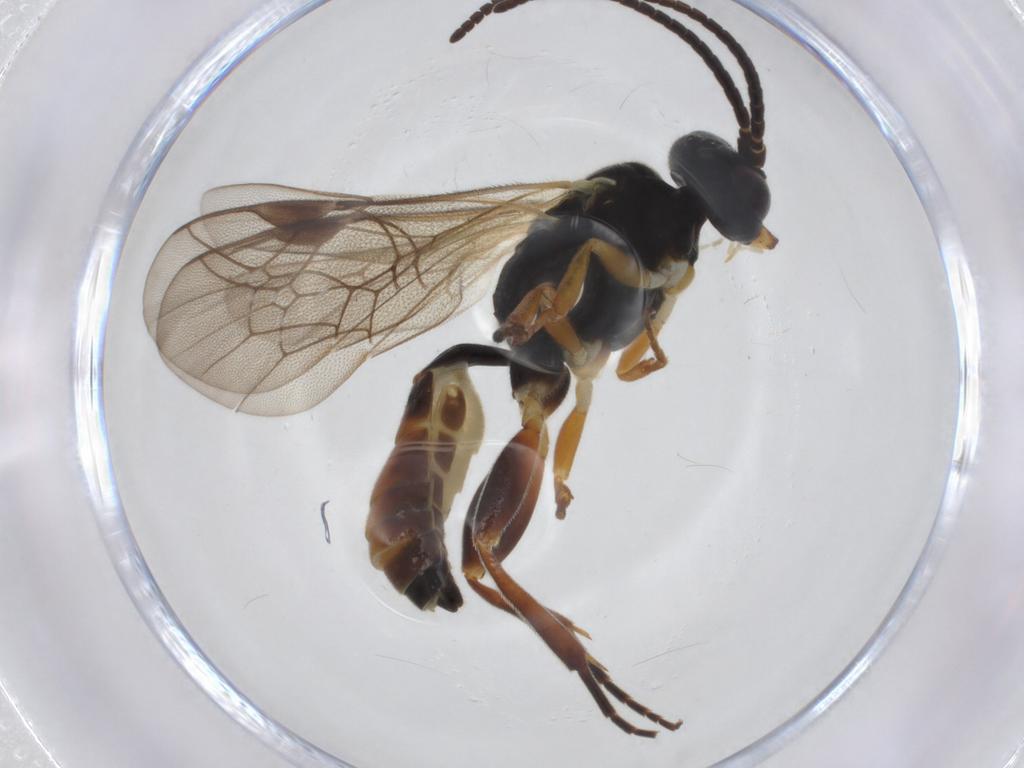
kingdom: Animalia
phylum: Arthropoda
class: Insecta
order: Hymenoptera
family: Ichneumonidae
